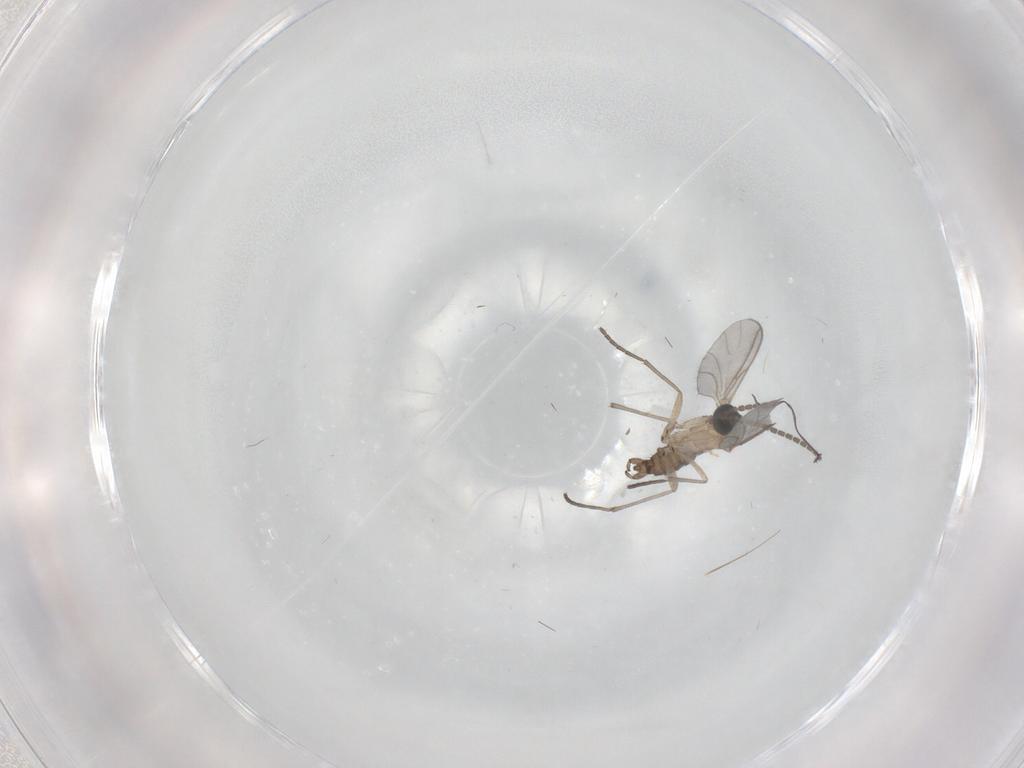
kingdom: Animalia
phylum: Arthropoda
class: Insecta
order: Diptera
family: Sciaridae
